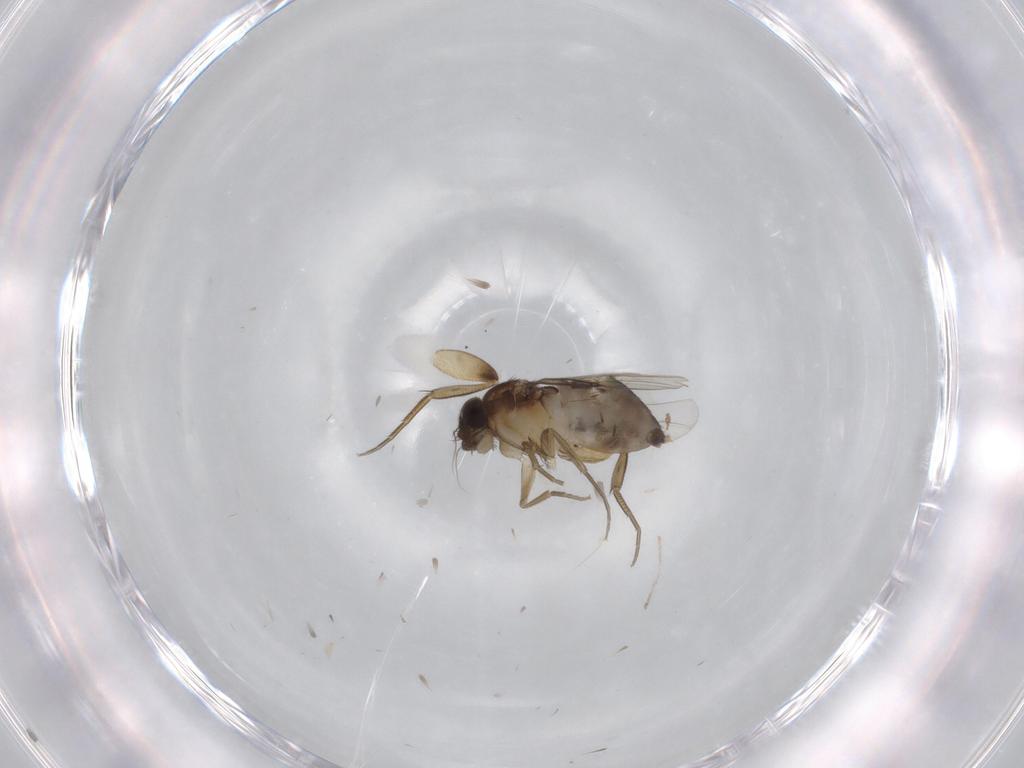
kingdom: Animalia
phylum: Arthropoda
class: Insecta
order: Diptera
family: Phoridae
